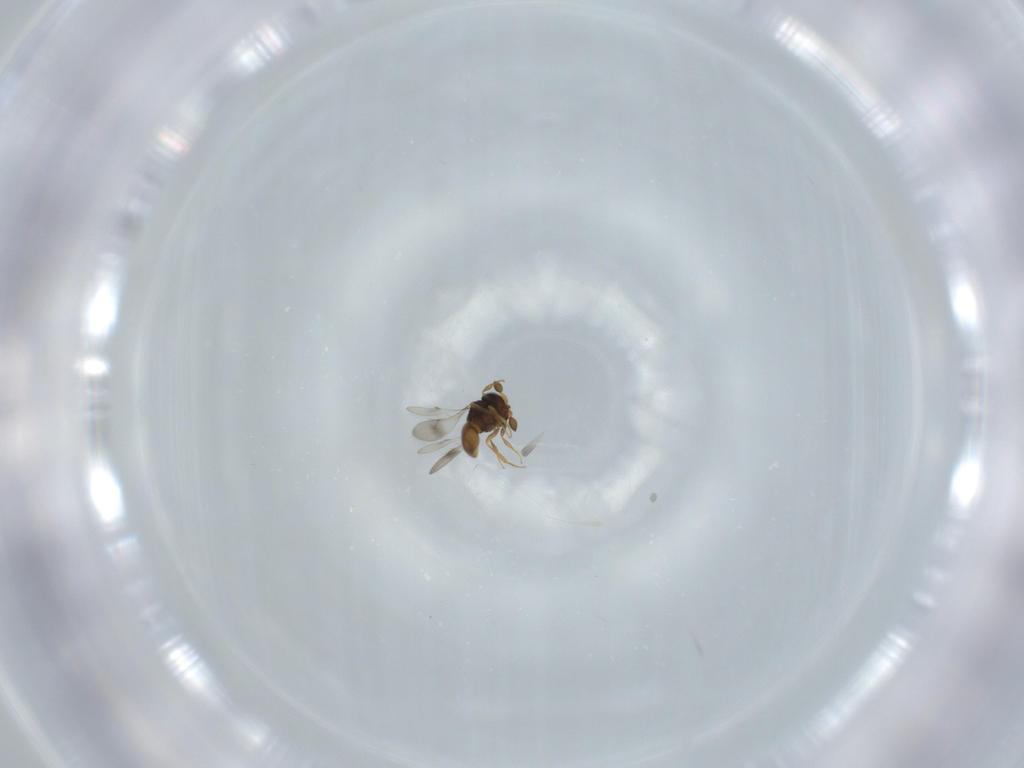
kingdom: Animalia
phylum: Arthropoda
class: Insecta
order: Hymenoptera
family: Scelionidae
